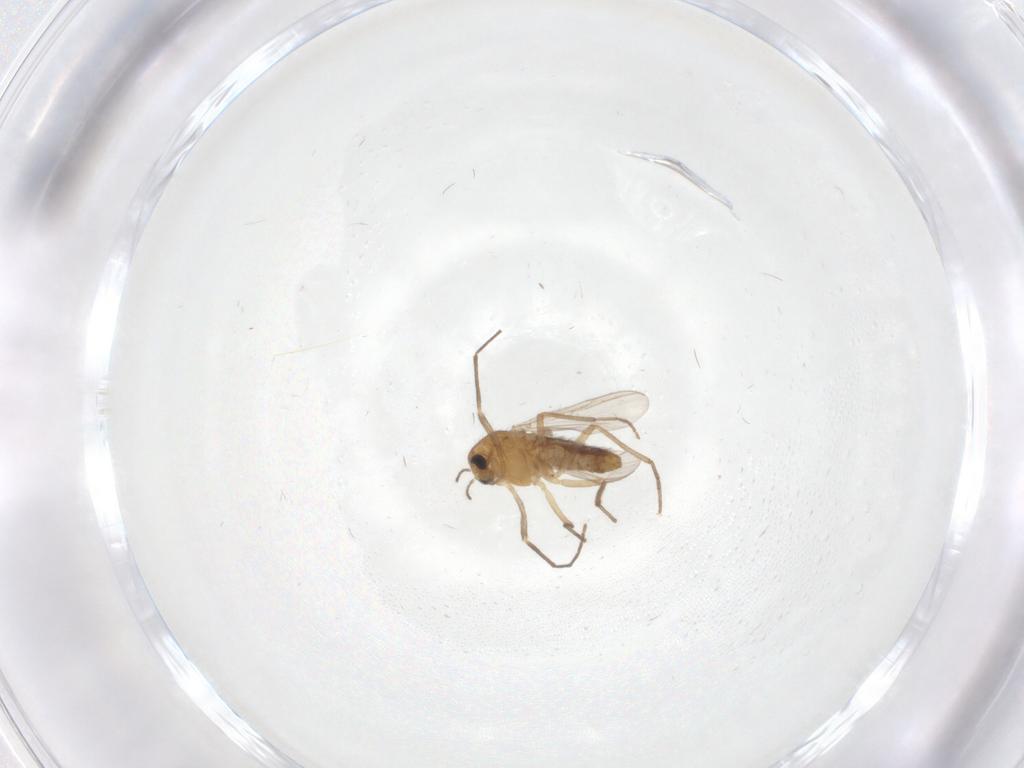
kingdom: Animalia
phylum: Arthropoda
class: Insecta
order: Diptera
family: Chironomidae
